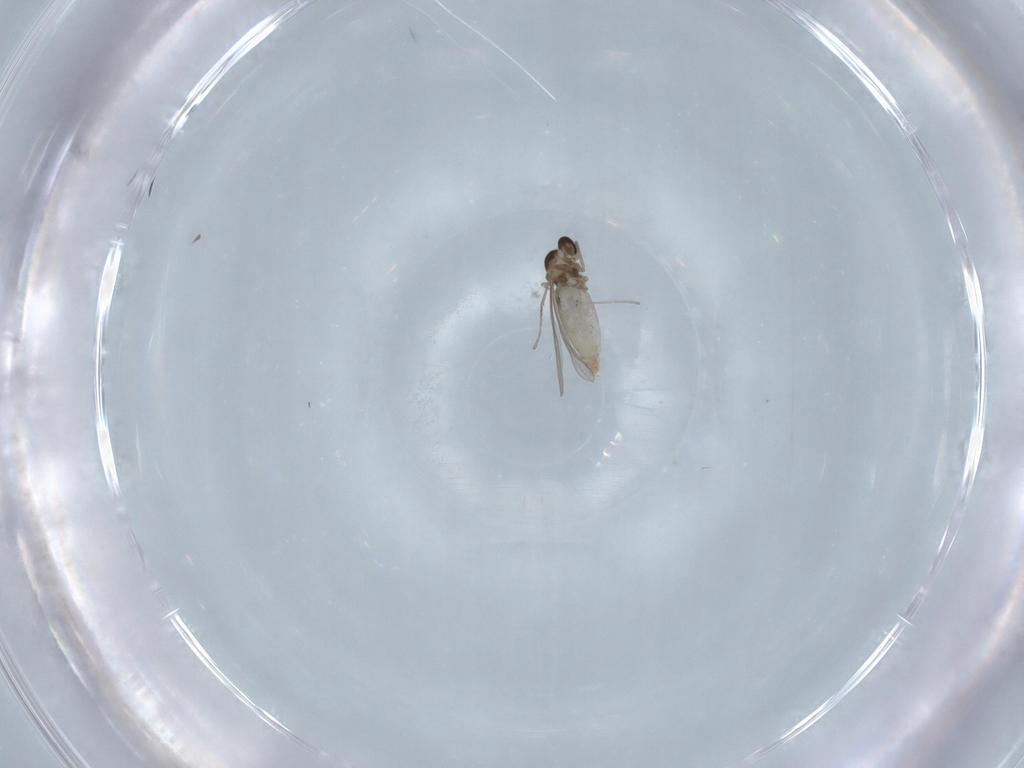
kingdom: Animalia
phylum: Arthropoda
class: Insecta
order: Diptera
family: Cecidomyiidae
